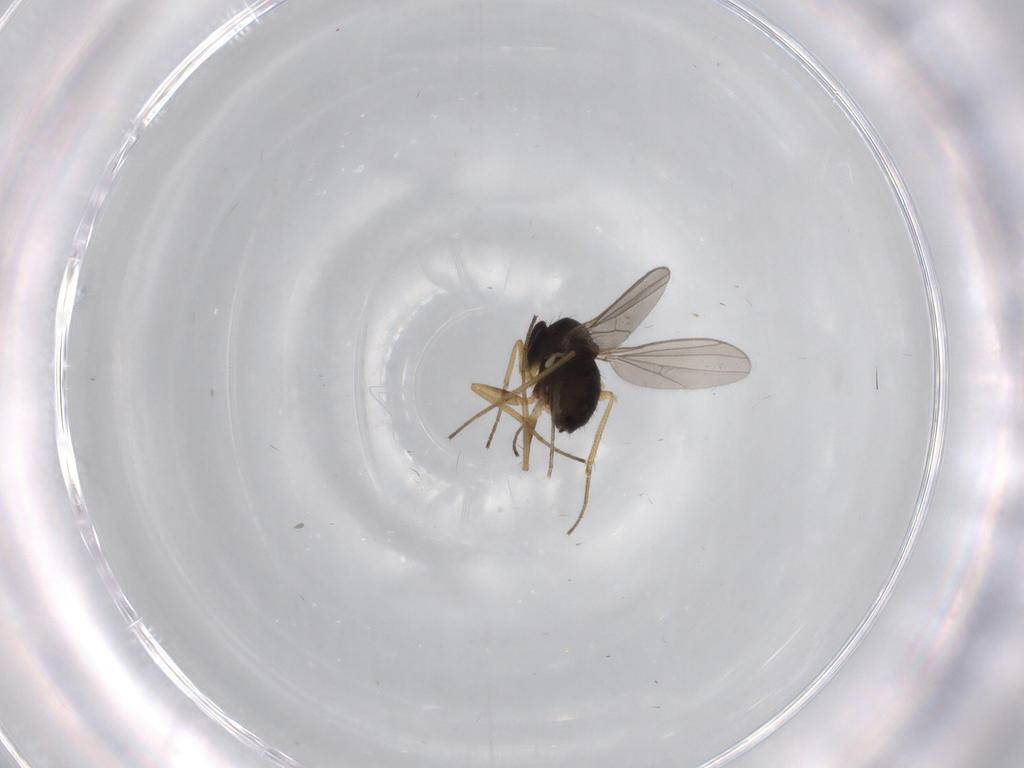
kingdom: Animalia
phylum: Arthropoda
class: Insecta
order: Diptera
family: Dolichopodidae
